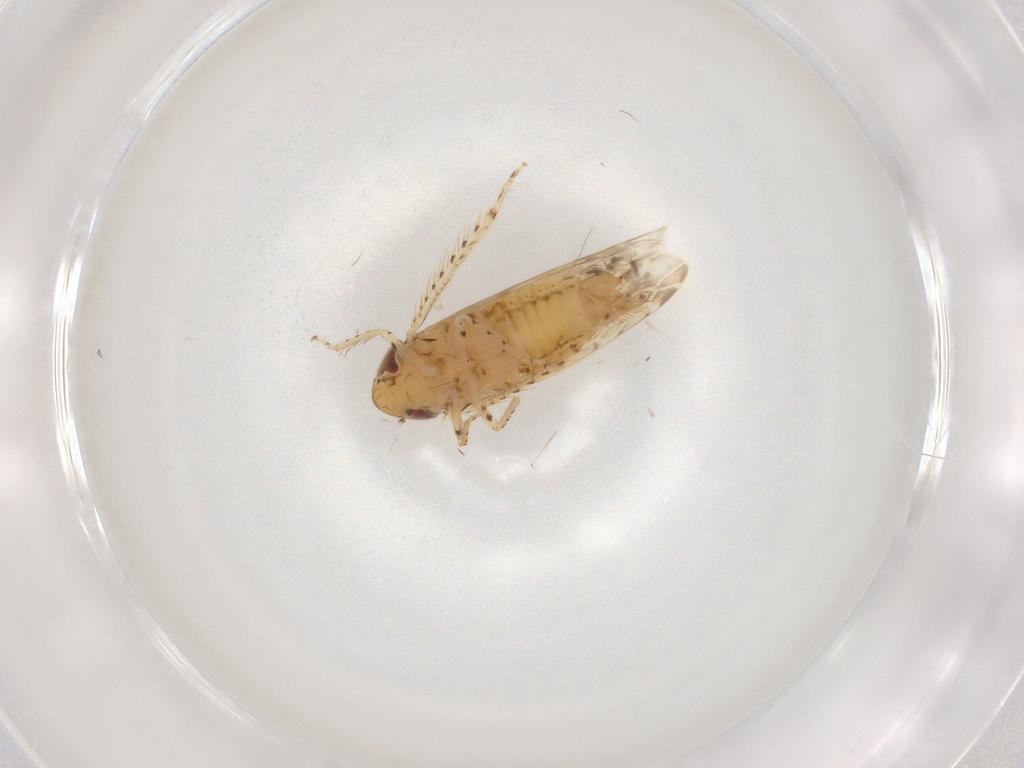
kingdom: Animalia
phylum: Arthropoda
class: Insecta
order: Hemiptera
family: Cicadellidae
